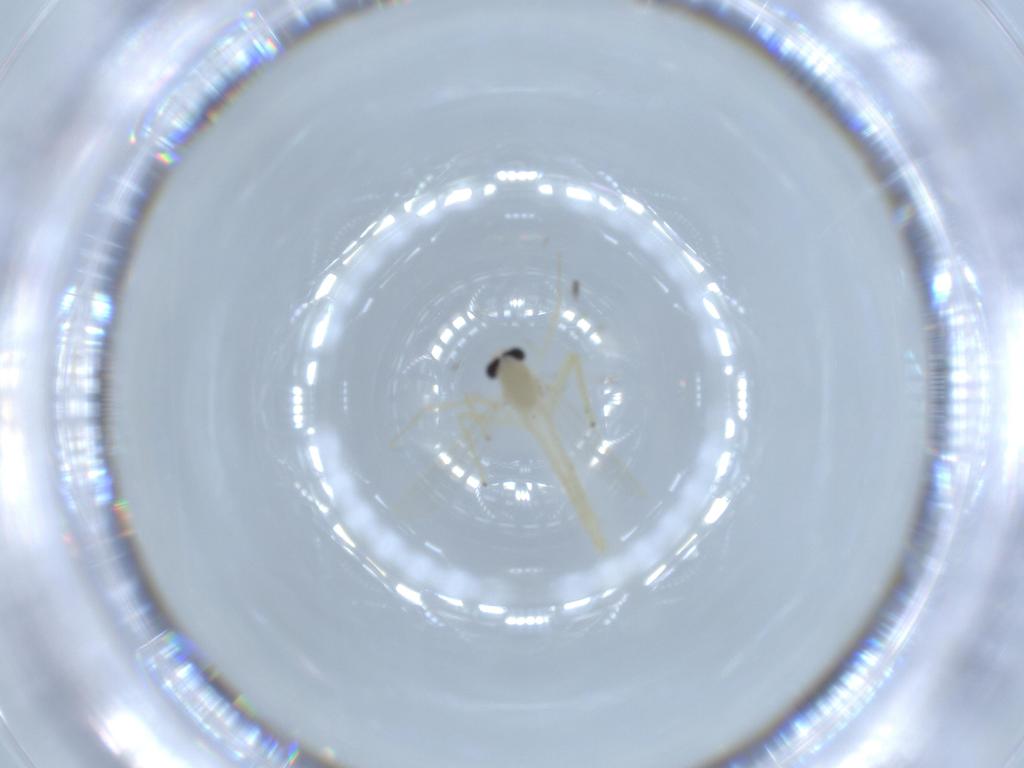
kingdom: Animalia
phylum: Arthropoda
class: Insecta
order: Diptera
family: Chironomidae
